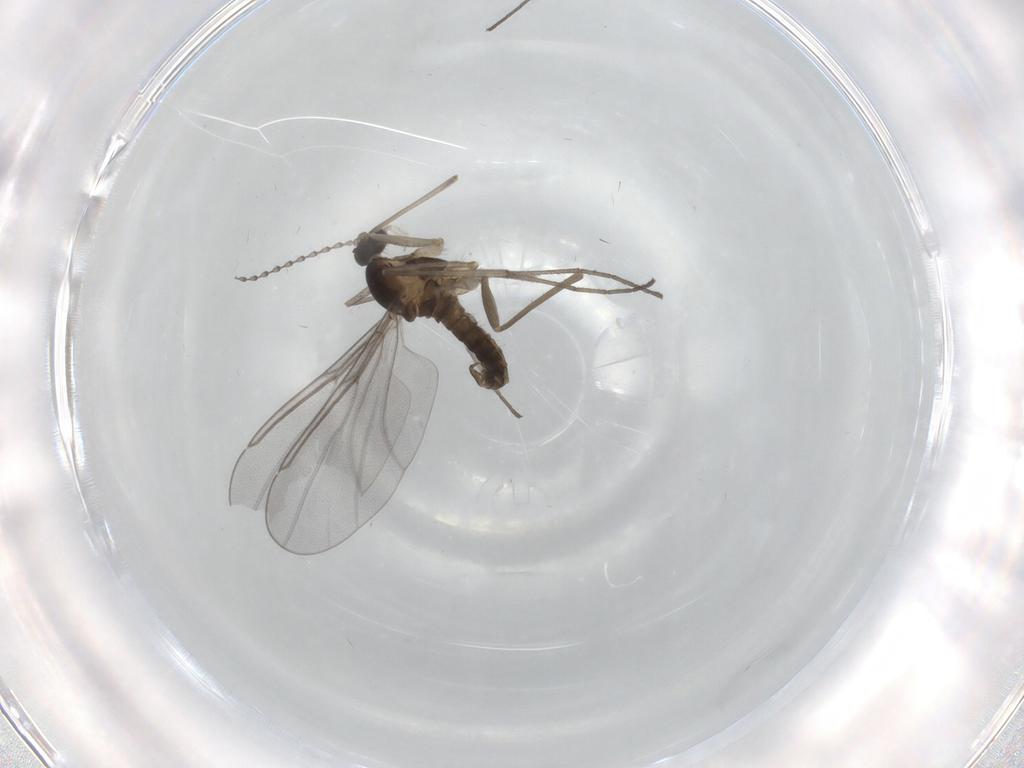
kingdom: Animalia
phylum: Arthropoda
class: Insecta
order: Diptera
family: Cecidomyiidae
